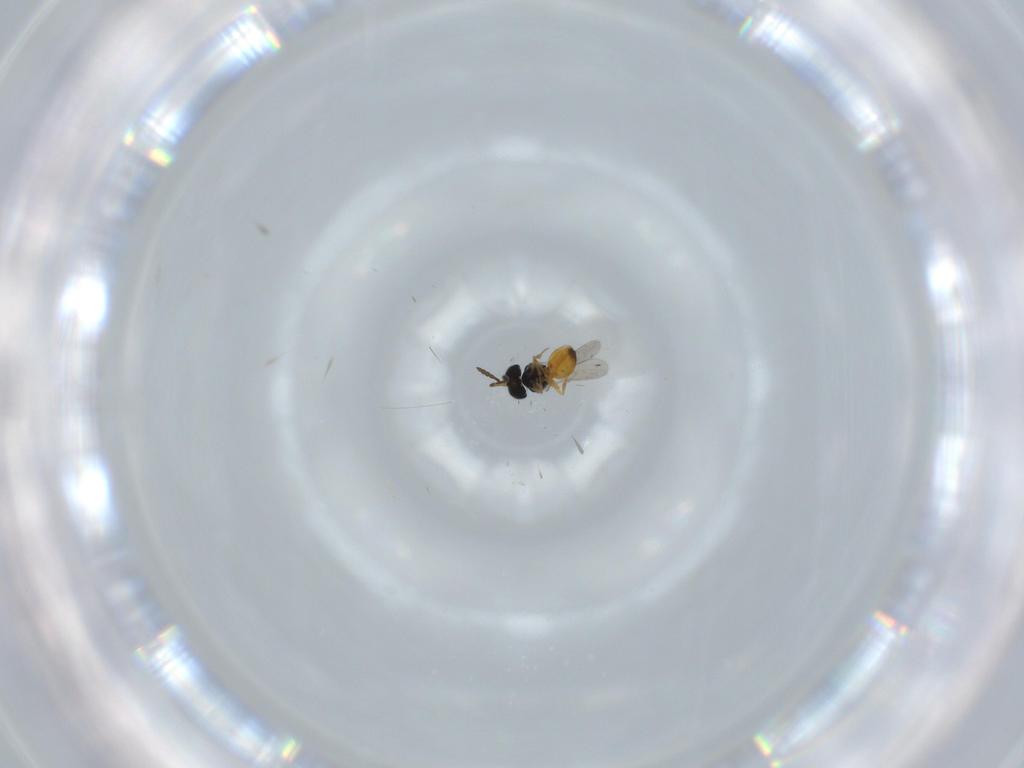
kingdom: Animalia
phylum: Arthropoda
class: Insecta
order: Hymenoptera
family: Scelionidae
